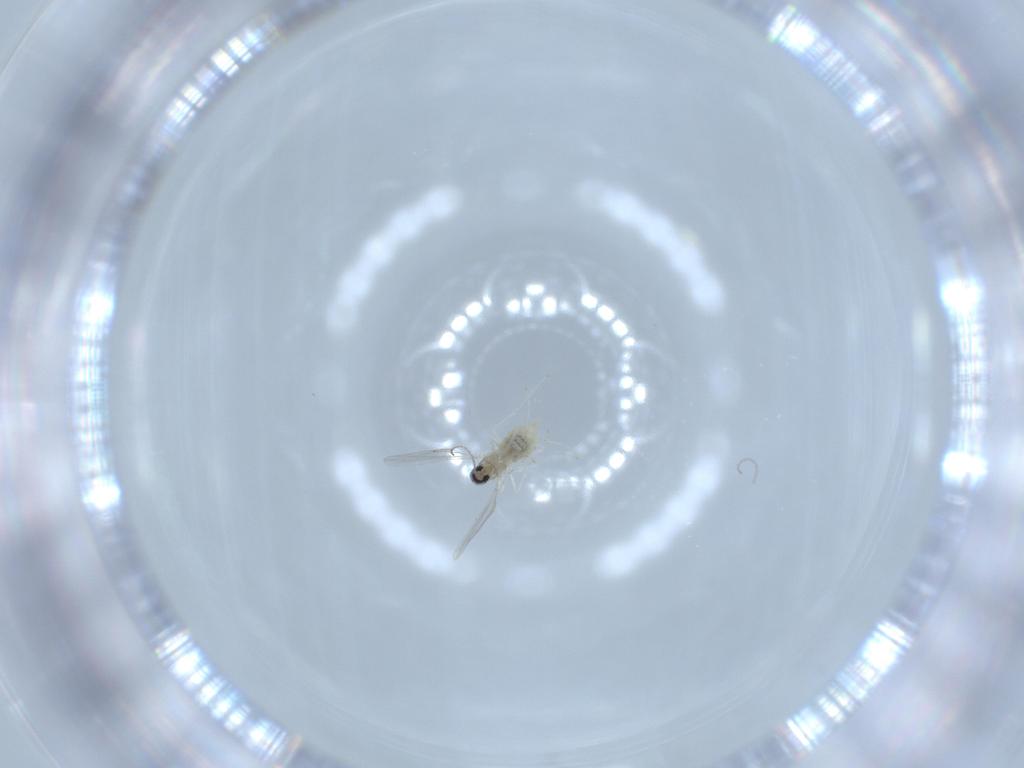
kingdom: Animalia
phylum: Arthropoda
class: Insecta
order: Diptera
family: Cecidomyiidae
